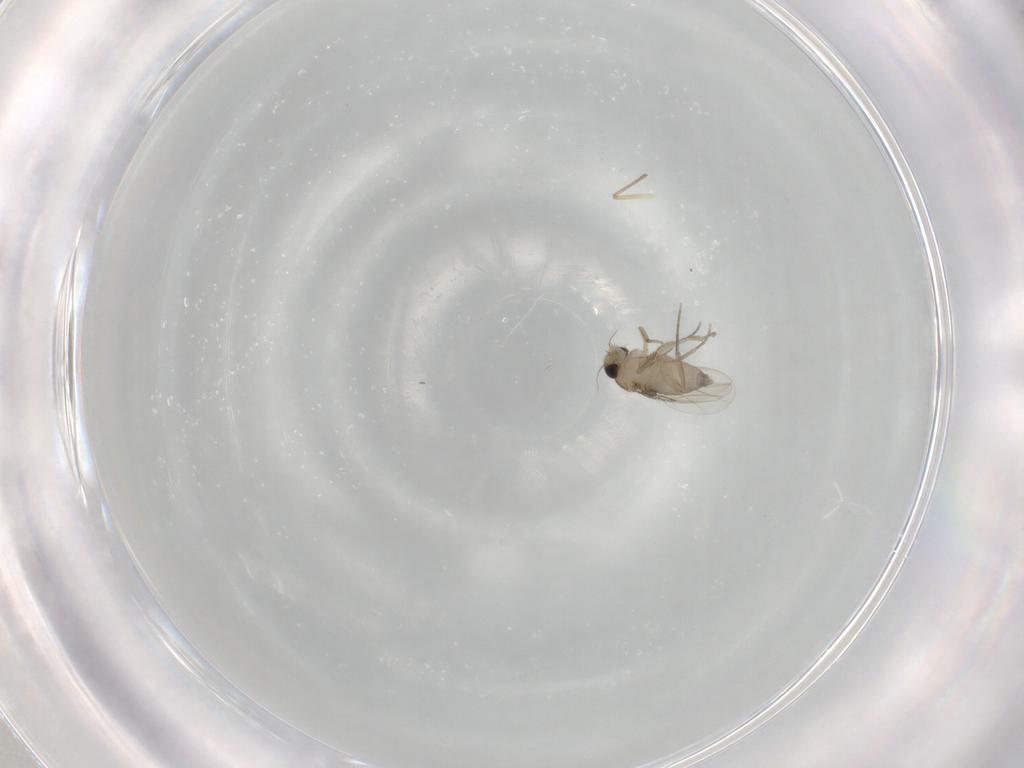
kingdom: Animalia
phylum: Arthropoda
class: Insecta
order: Diptera
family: Phoridae
